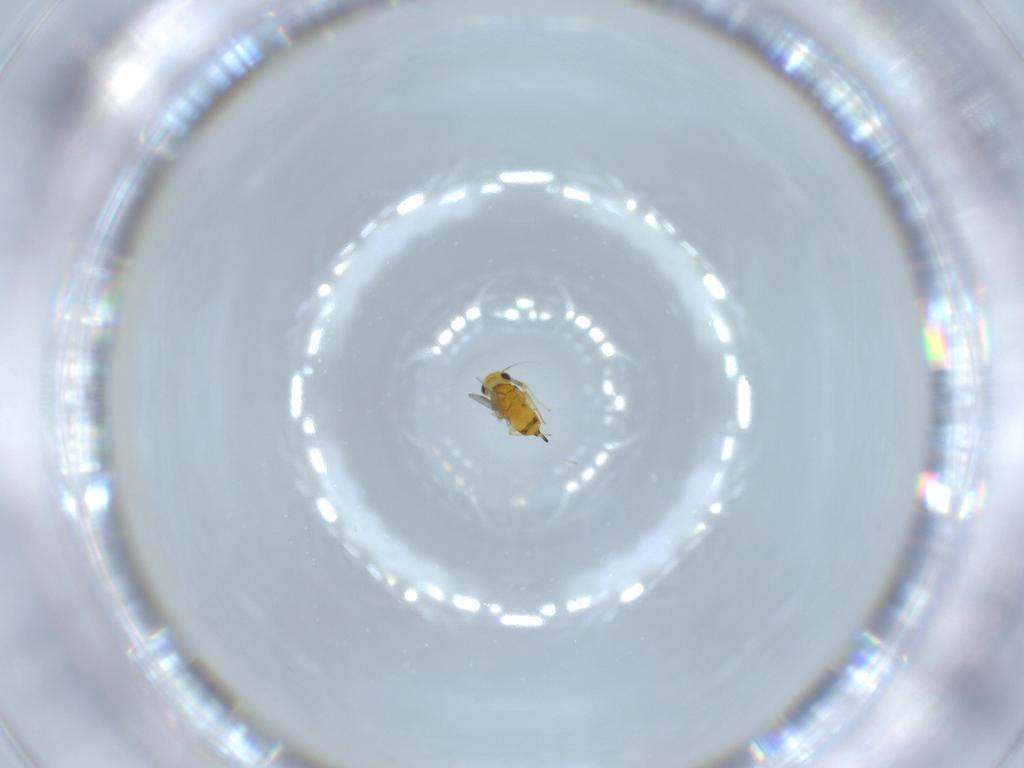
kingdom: Animalia
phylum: Arthropoda
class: Insecta
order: Hymenoptera
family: Aphelinidae
